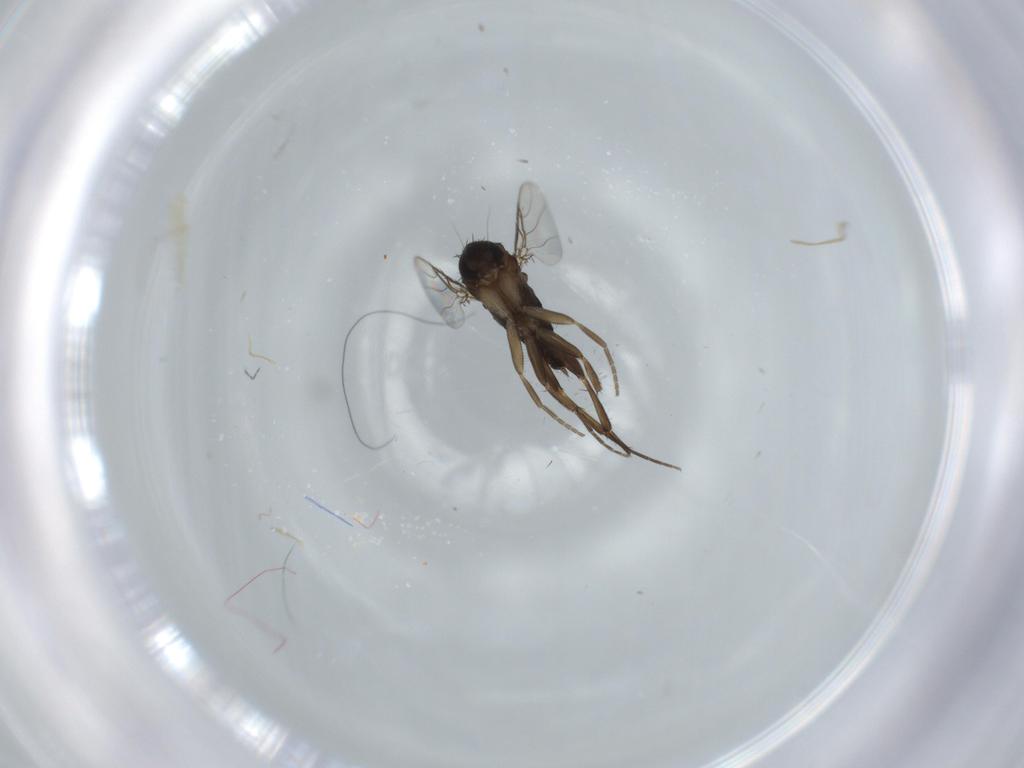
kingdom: Animalia
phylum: Arthropoda
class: Insecta
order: Diptera
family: Phoridae
